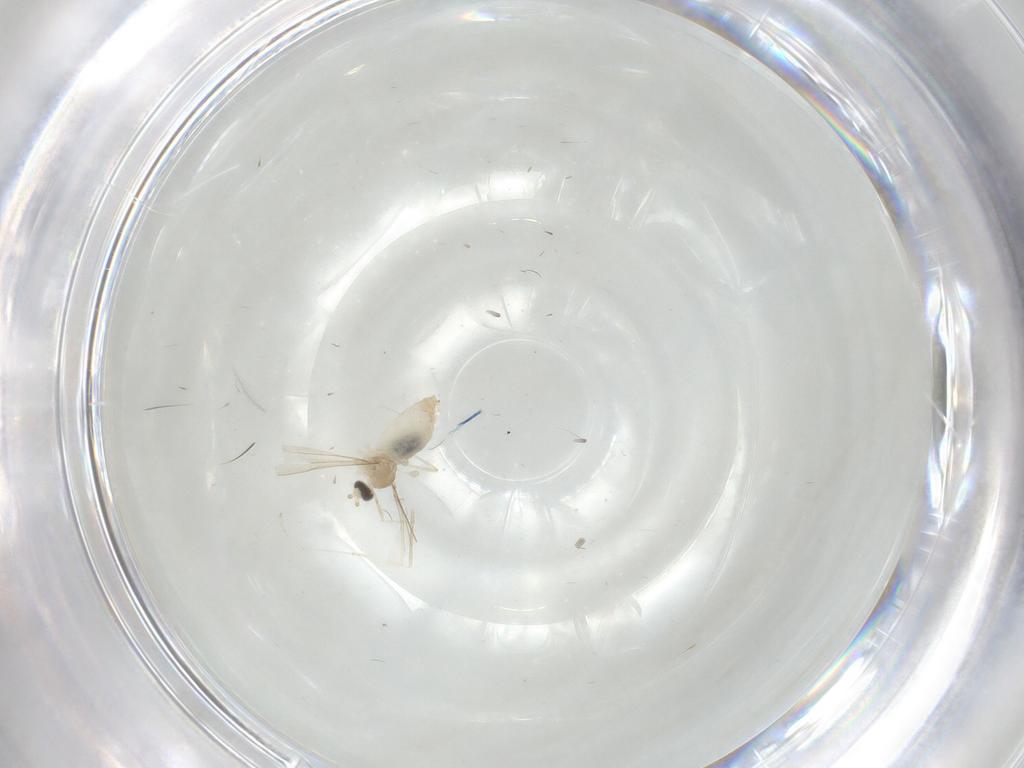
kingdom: Animalia
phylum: Arthropoda
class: Insecta
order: Diptera
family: Cecidomyiidae
